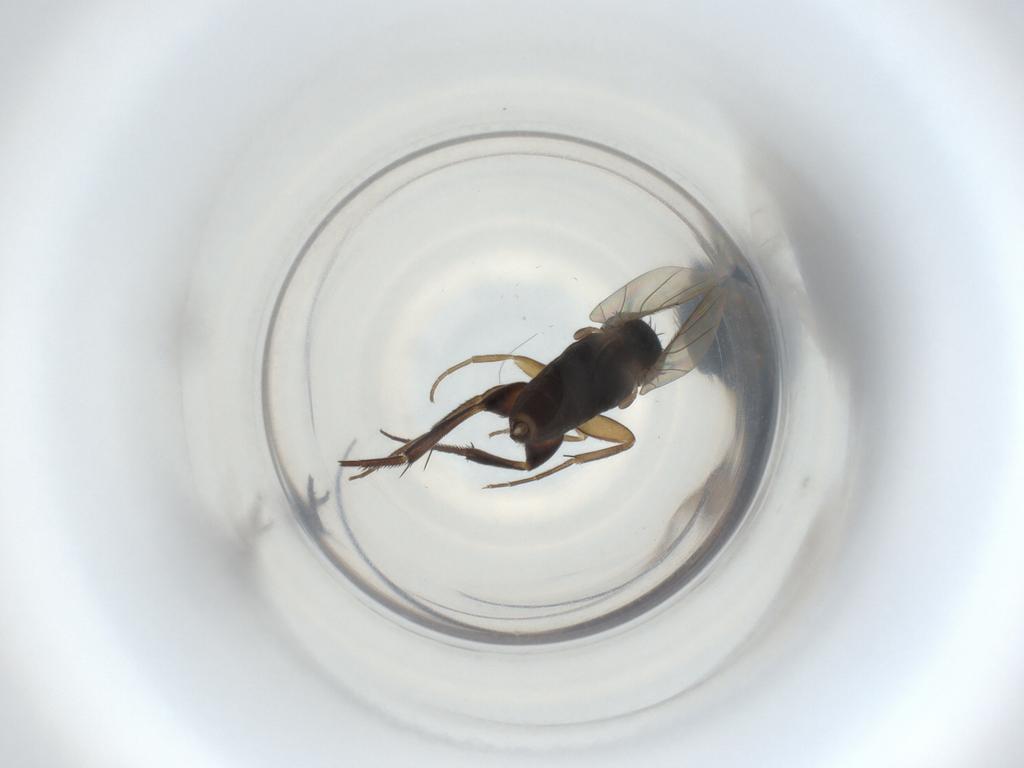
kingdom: Animalia
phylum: Arthropoda
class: Insecta
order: Diptera
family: Phoridae
